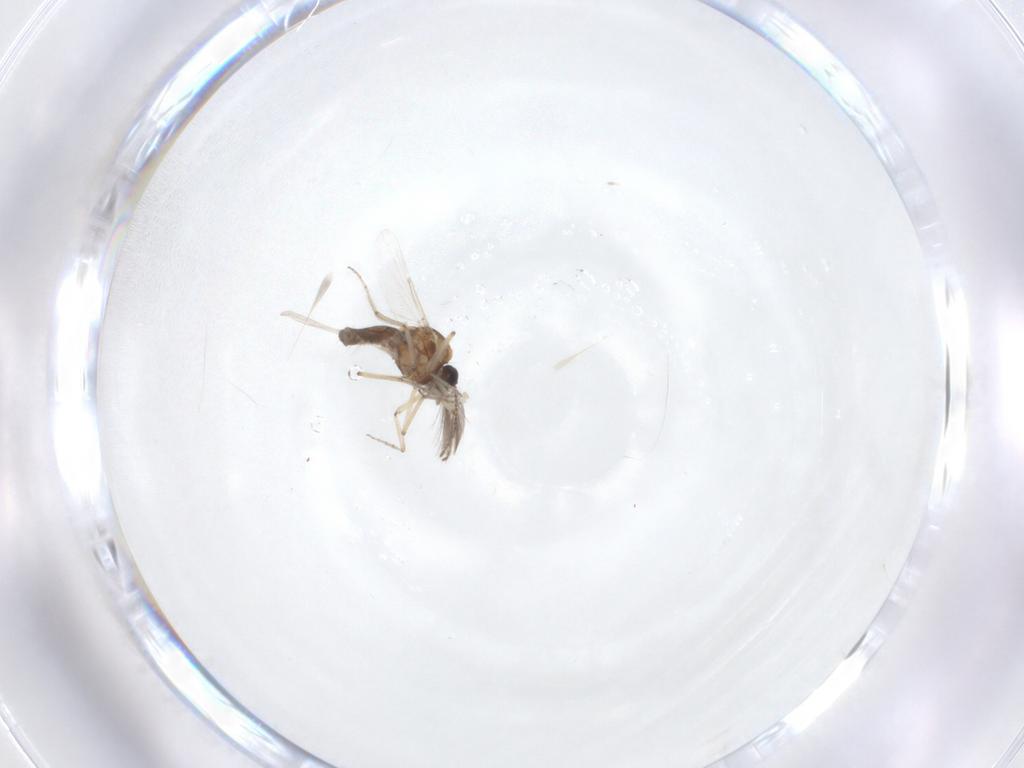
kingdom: Animalia
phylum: Arthropoda
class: Insecta
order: Diptera
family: Ceratopogonidae
